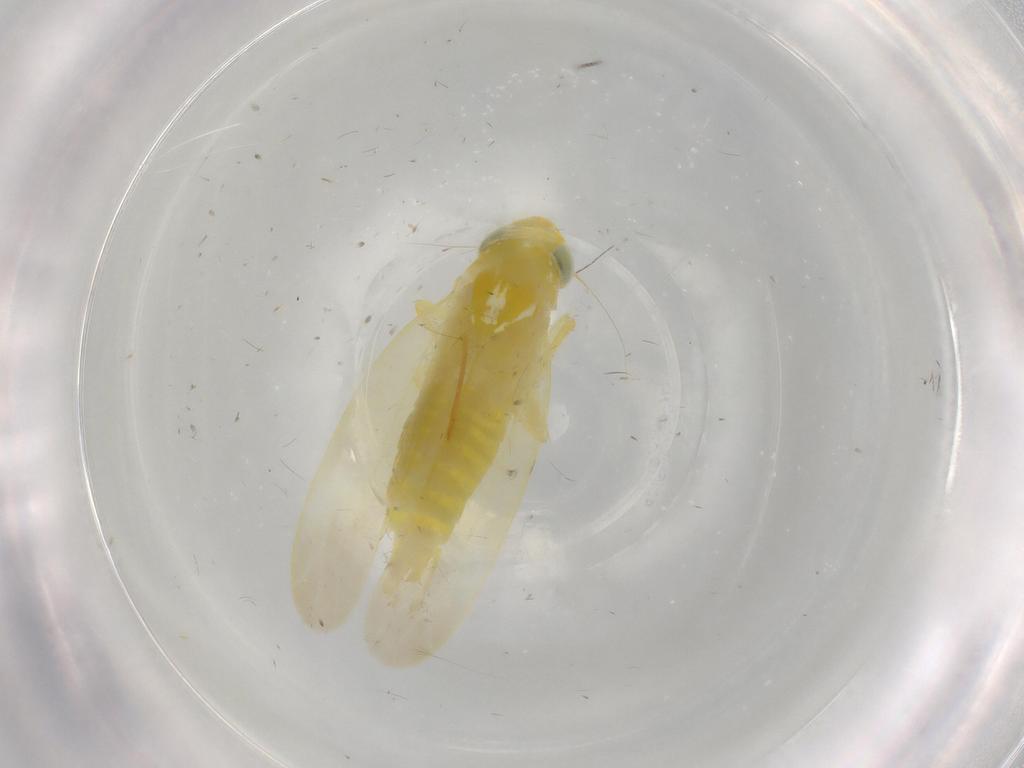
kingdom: Animalia
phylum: Arthropoda
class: Insecta
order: Hemiptera
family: Cicadellidae
